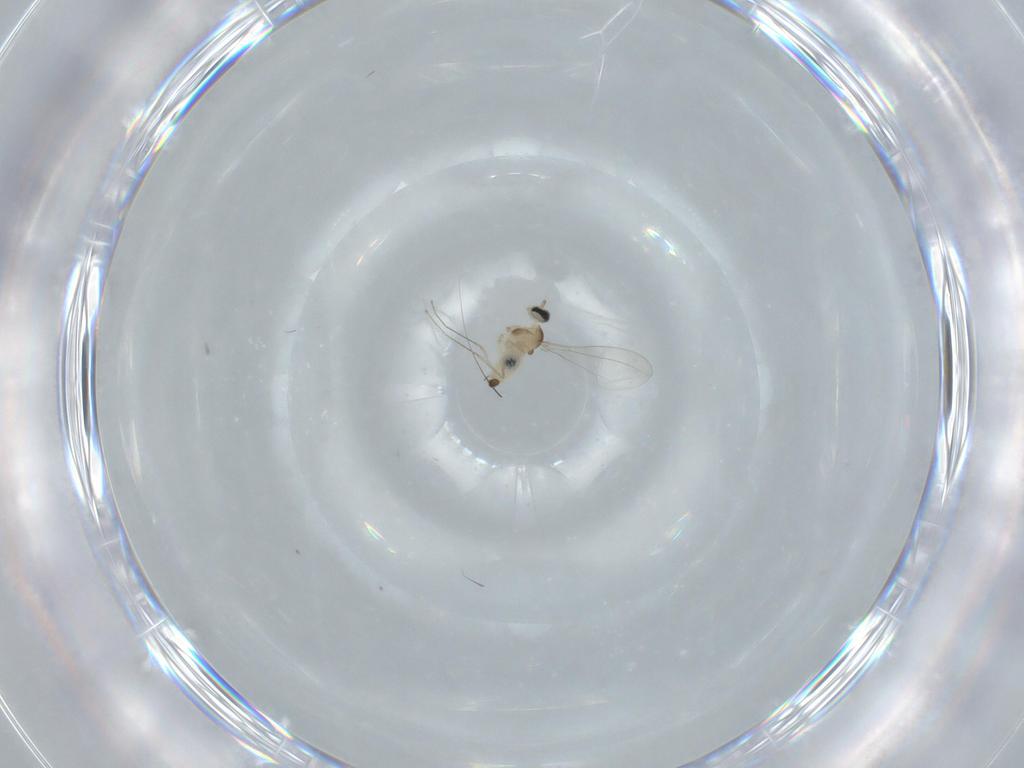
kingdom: Animalia
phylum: Arthropoda
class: Insecta
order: Diptera
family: Cecidomyiidae
